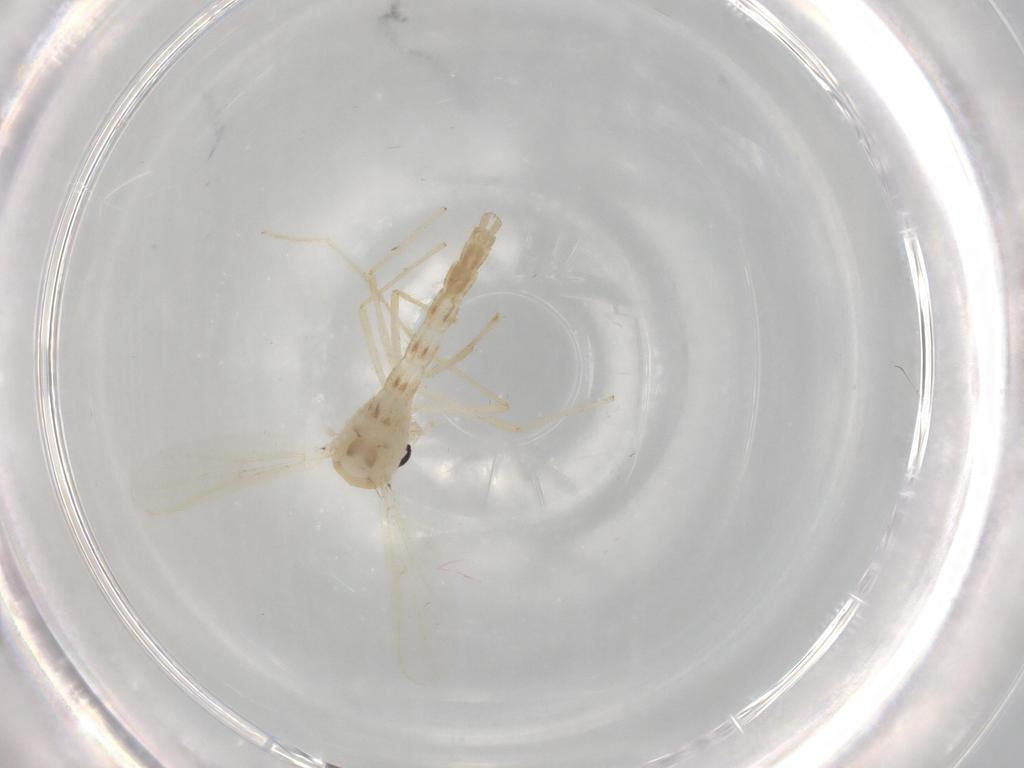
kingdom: Animalia
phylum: Arthropoda
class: Insecta
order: Diptera
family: Chironomidae
